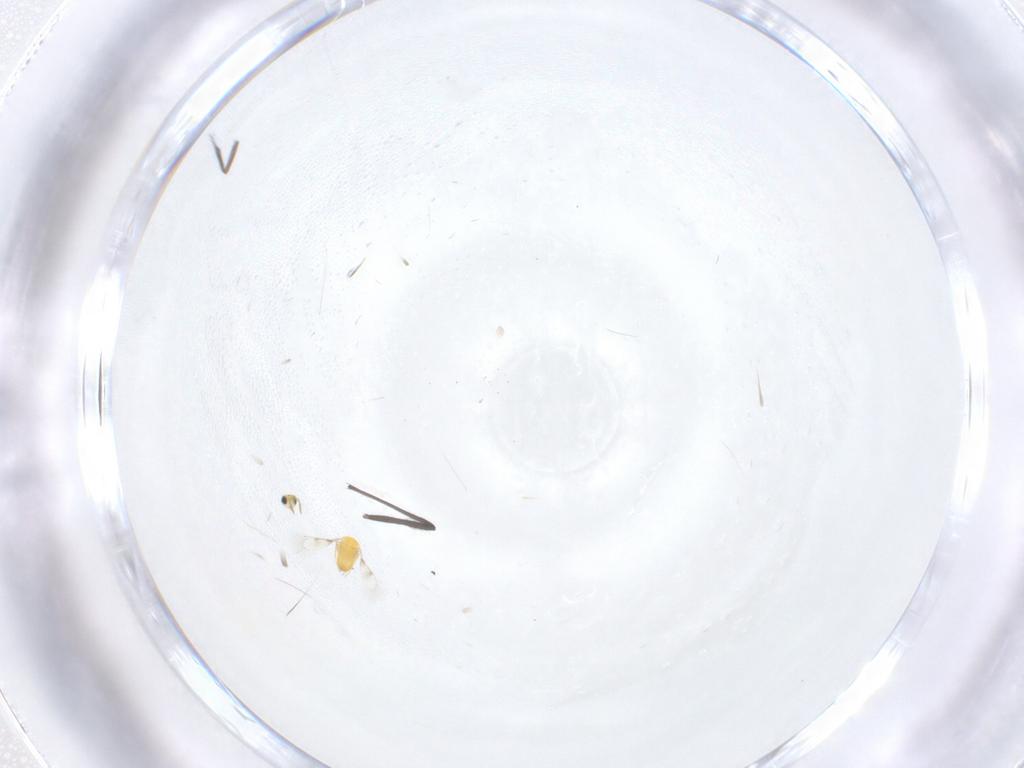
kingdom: Animalia
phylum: Arthropoda
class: Insecta
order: Hymenoptera
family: Trichogrammatidae
